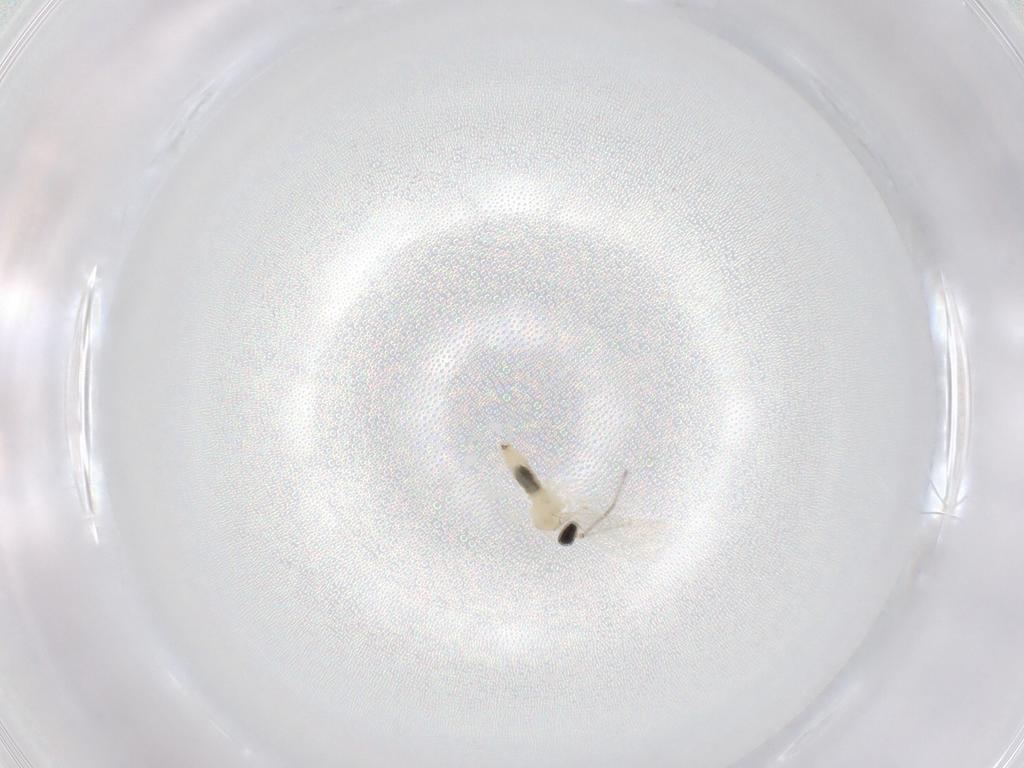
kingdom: Animalia
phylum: Arthropoda
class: Insecta
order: Diptera
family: Cecidomyiidae
